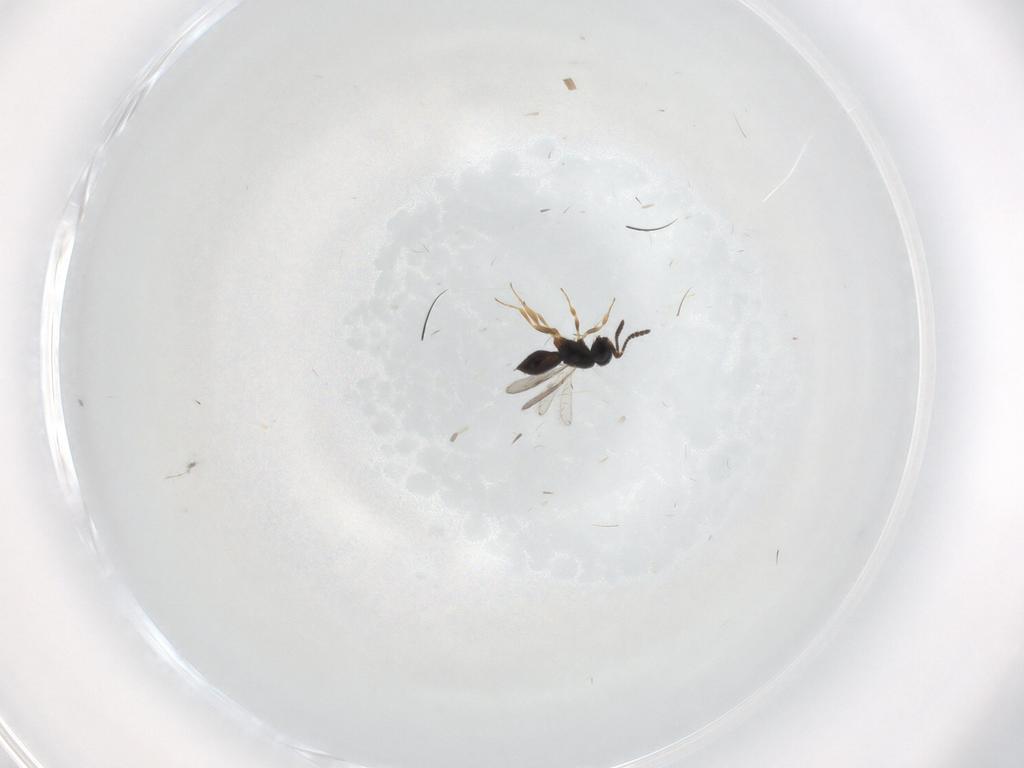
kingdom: Animalia
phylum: Arthropoda
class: Insecta
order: Hymenoptera
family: Scelionidae
